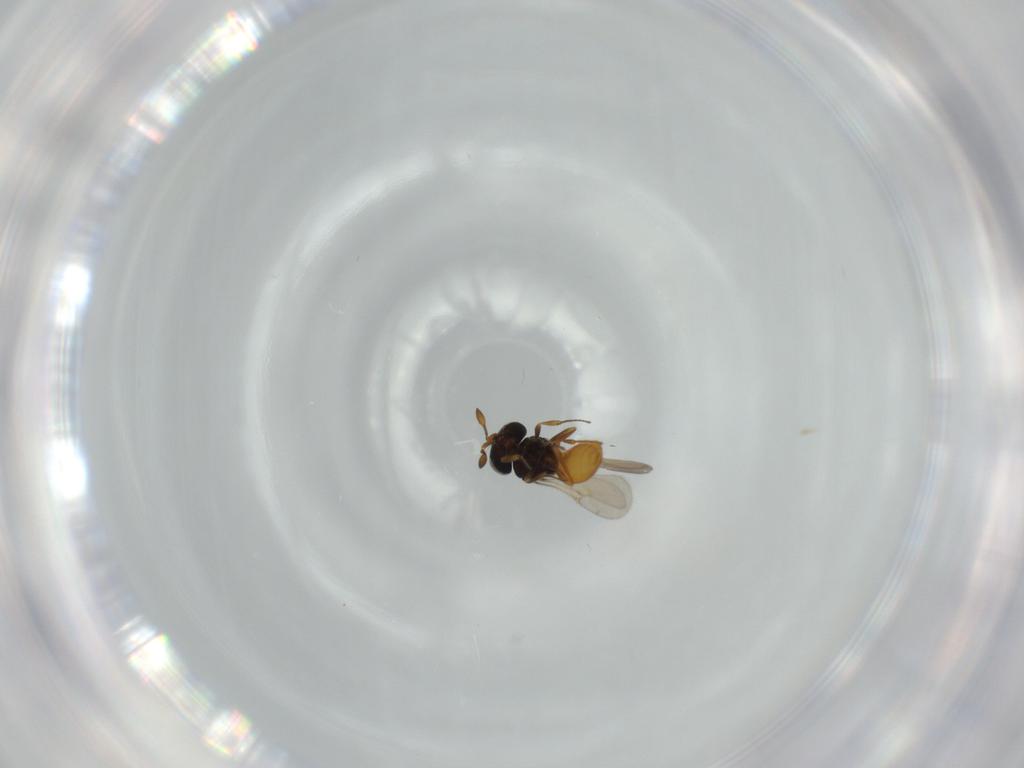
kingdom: Animalia
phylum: Arthropoda
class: Insecta
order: Hymenoptera
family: Scelionidae
